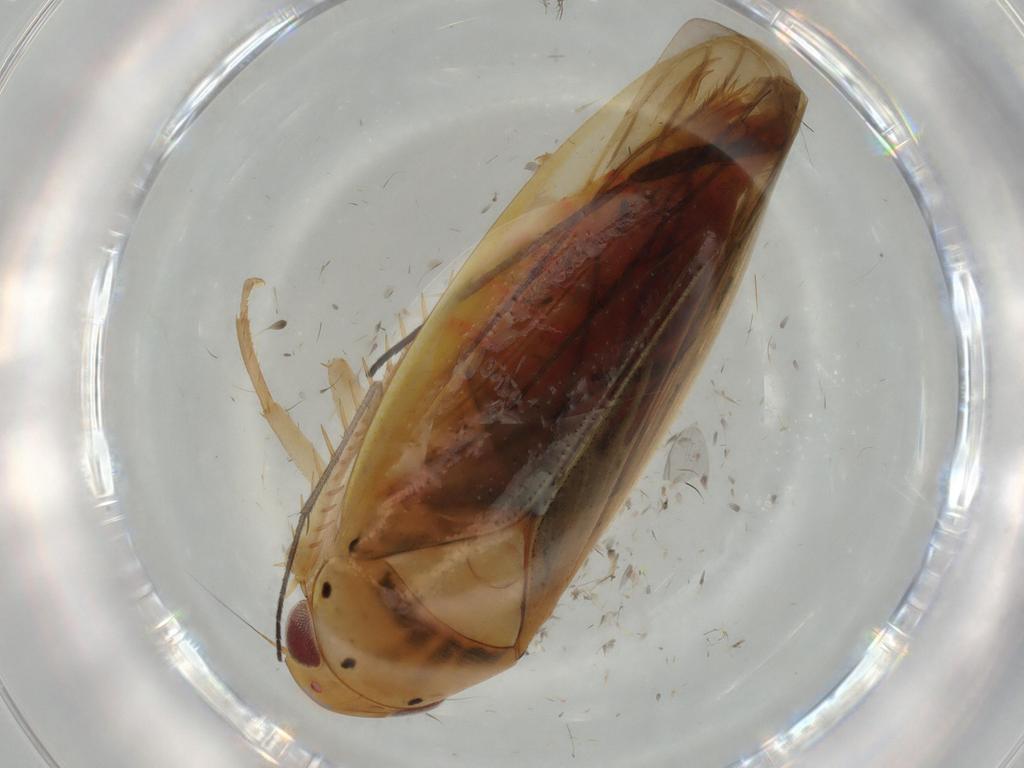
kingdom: Animalia
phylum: Arthropoda
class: Insecta
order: Hemiptera
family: Cicadellidae
